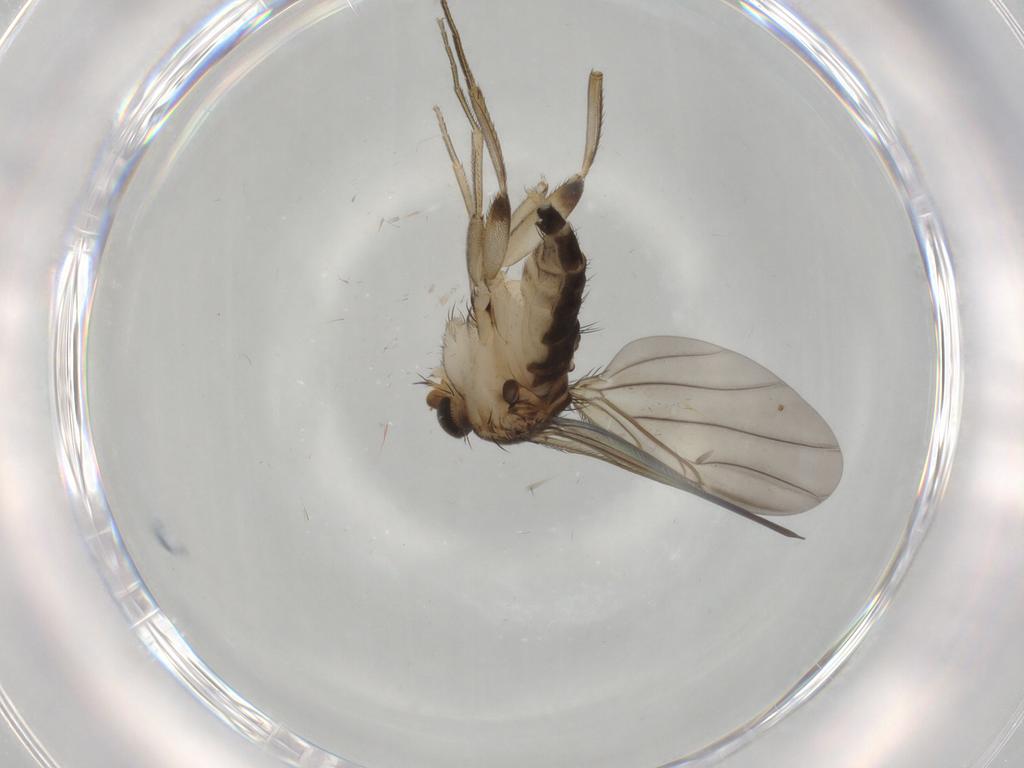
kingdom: Animalia
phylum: Arthropoda
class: Insecta
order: Diptera
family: Phoridae
